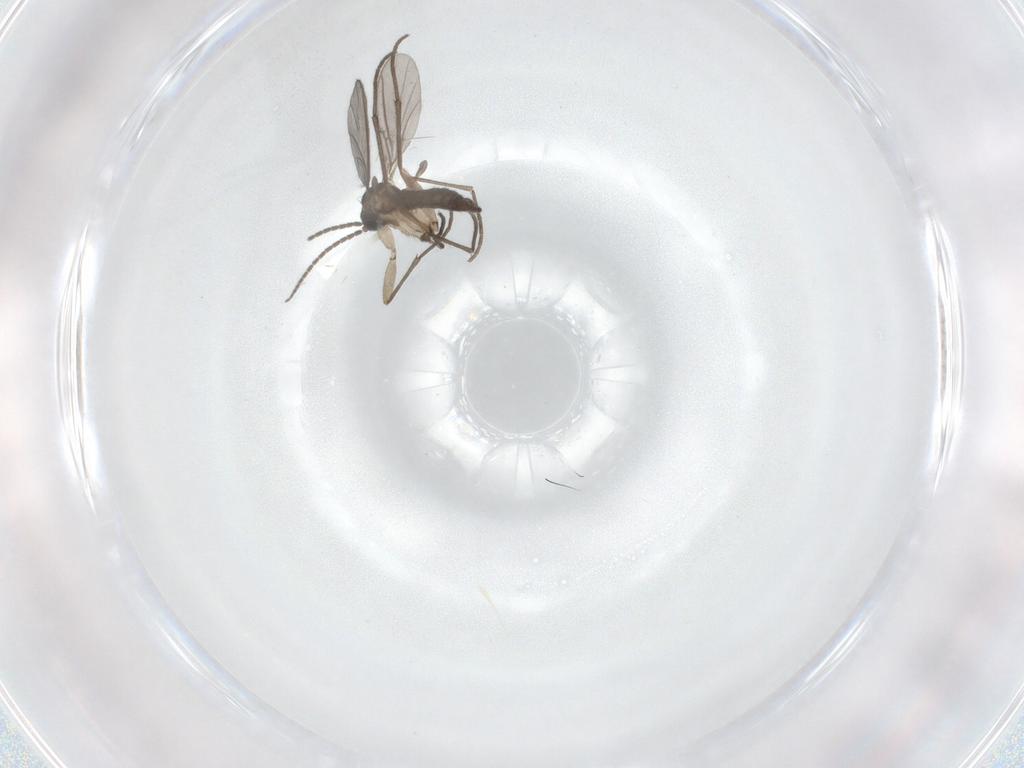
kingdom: Animalia
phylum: Arthropoda
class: Insecta
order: Diptera
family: Sciaridae
